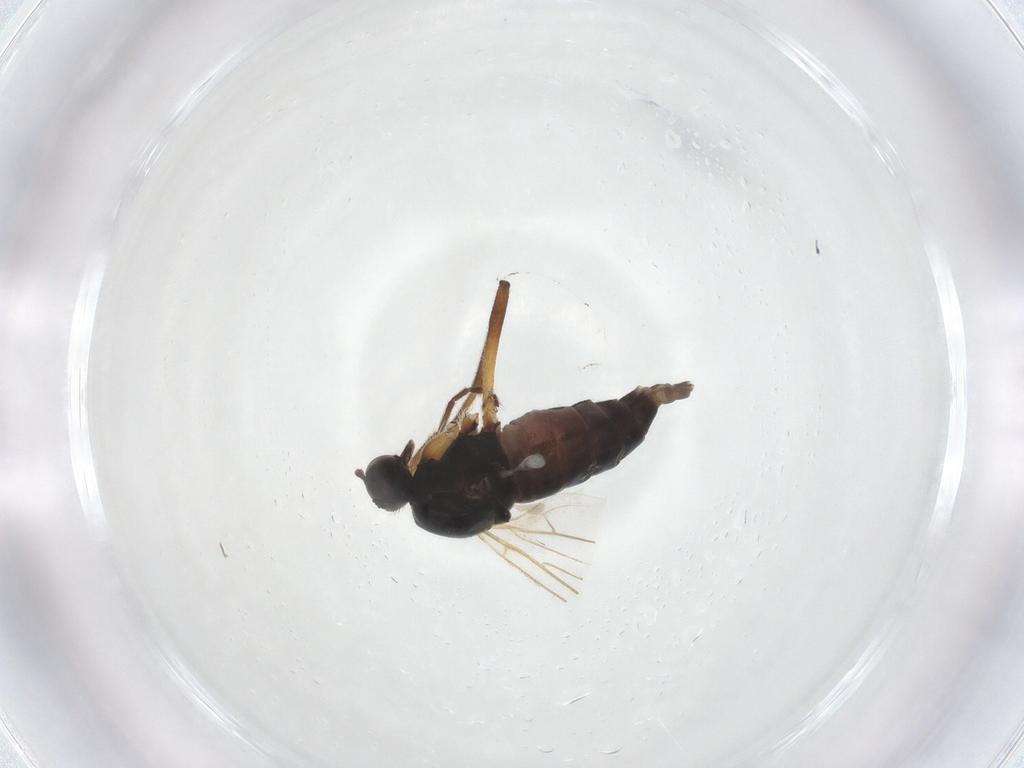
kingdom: Animalia
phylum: Arthropoda
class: Insecta
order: Diptera
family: Hybotidae
